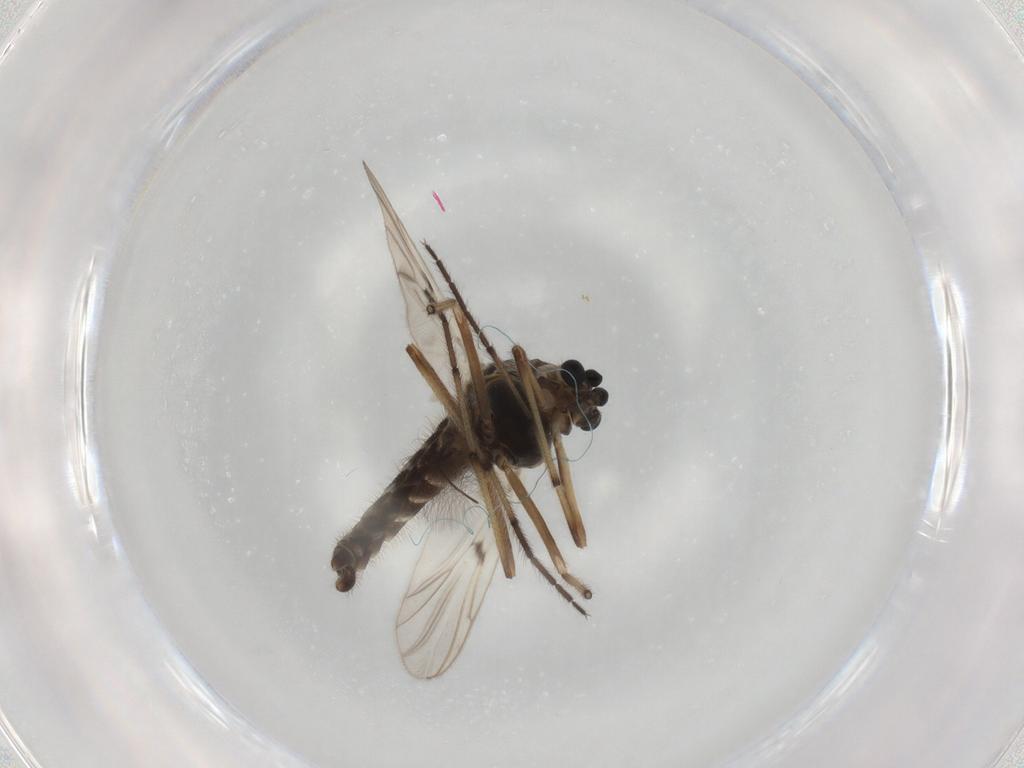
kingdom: Animalia
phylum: Arthropoda
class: Insecta
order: Diptera
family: Chironomidae
